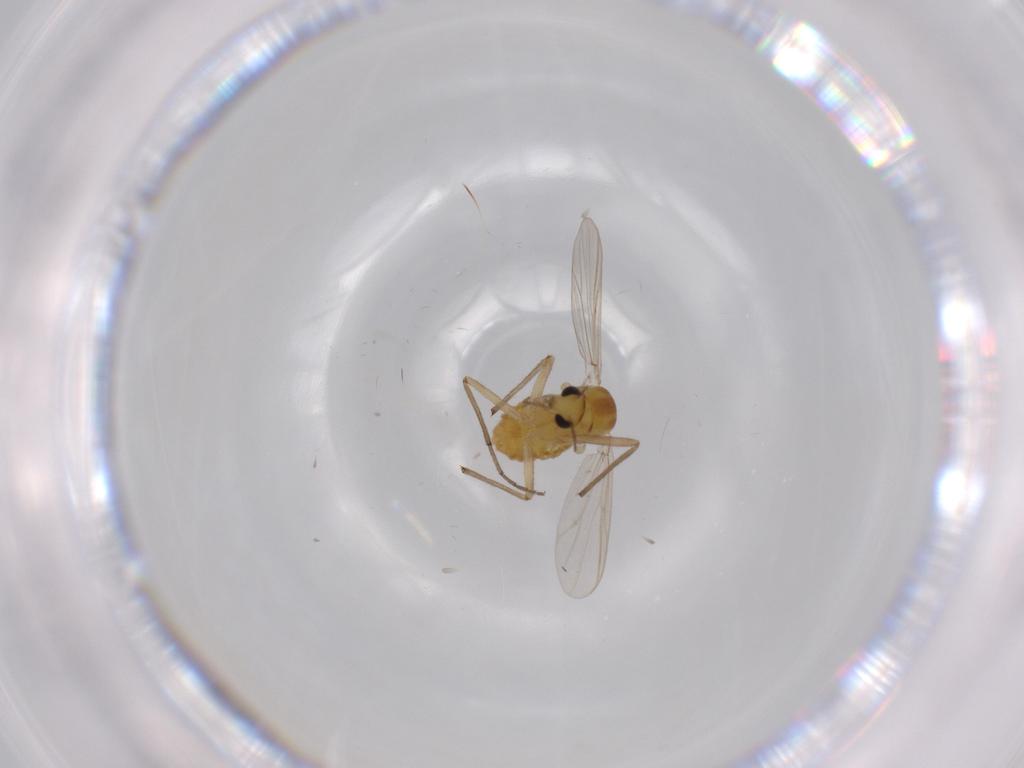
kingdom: Animalia
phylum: Arthropoda
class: Insecta
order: Diptera
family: Chironomidae
